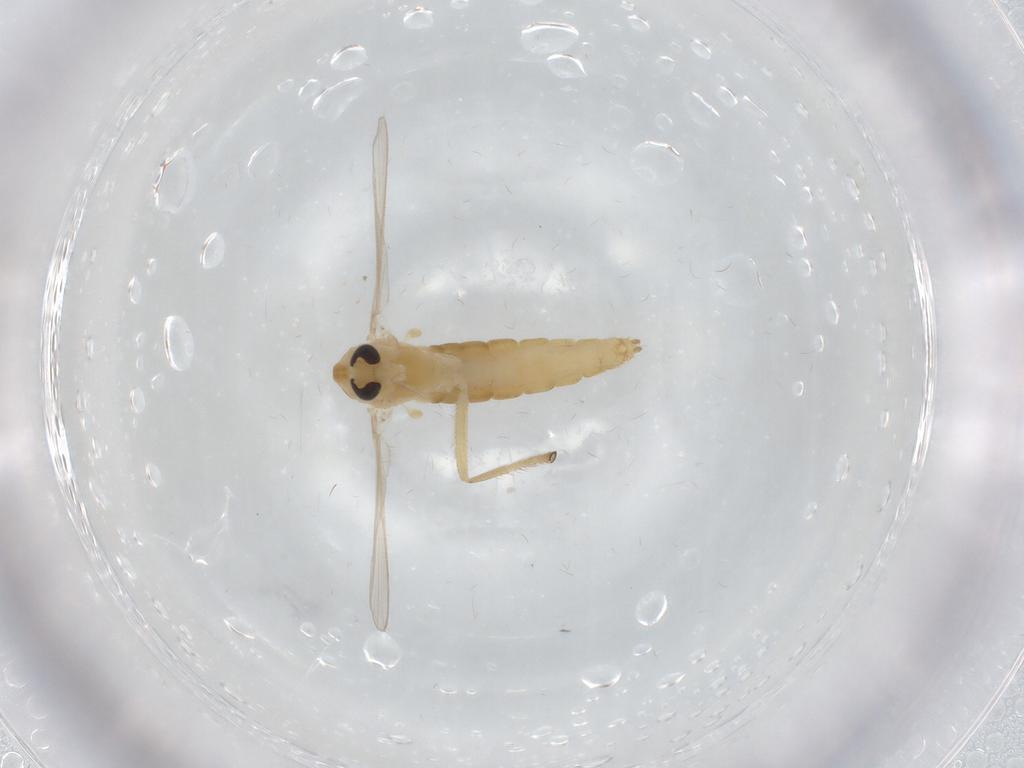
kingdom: Animalia
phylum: Arthropoda
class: Insecta
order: Diptera
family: Chironomidae
